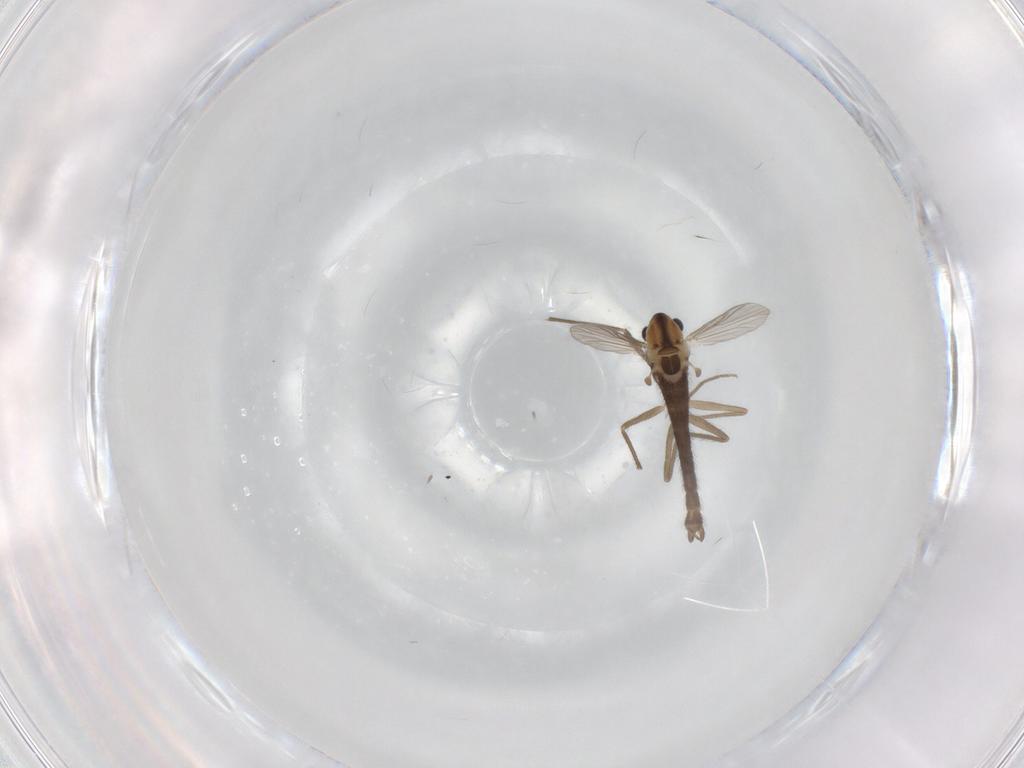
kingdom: Animalia
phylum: Arthropoda
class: Insecta
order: Diptera
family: Chironomidae
